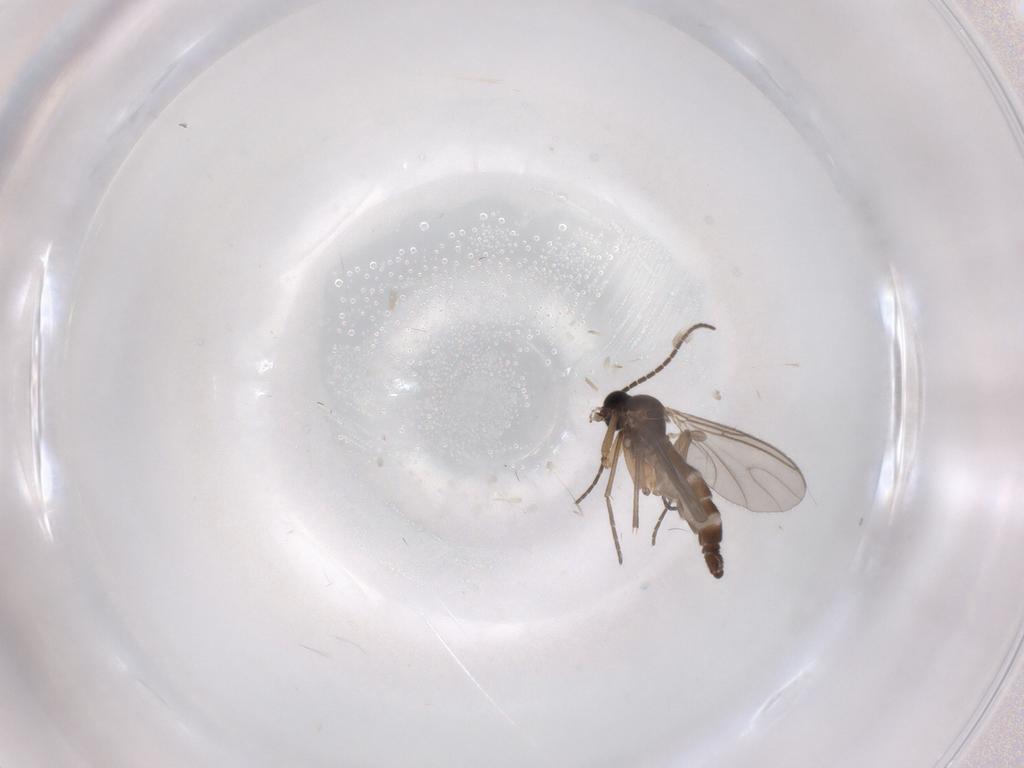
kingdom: Animalia
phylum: Arthropoda
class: Insecta
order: Diptera
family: Sciaridae
